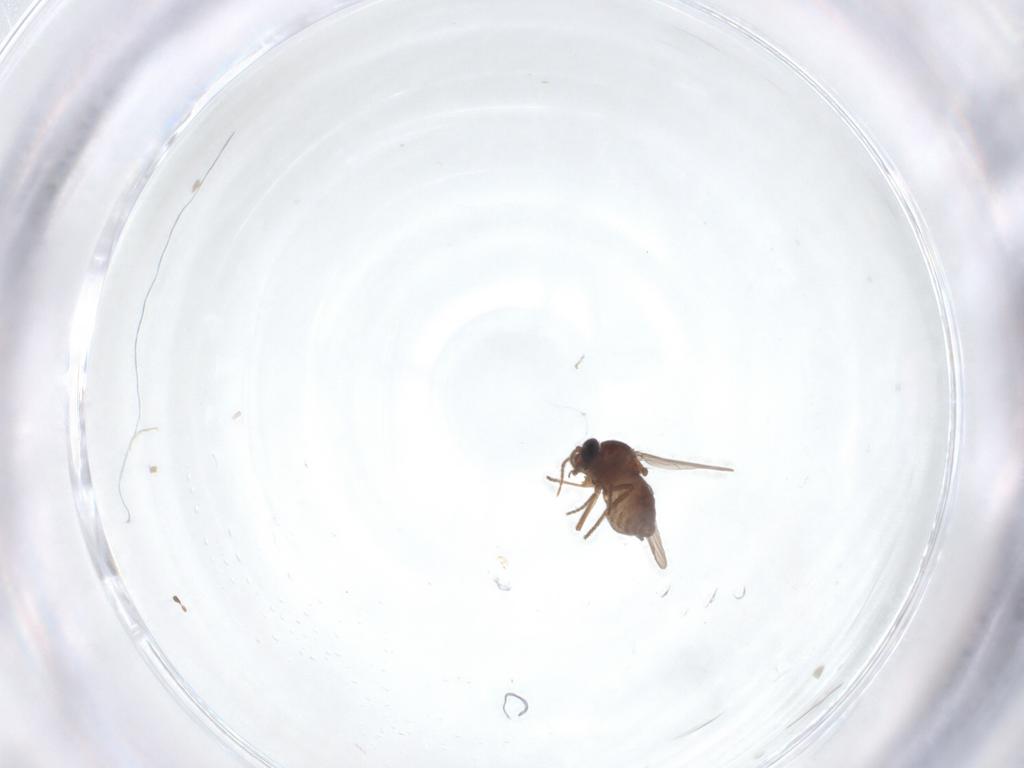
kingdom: Animalia
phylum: Arthropoda
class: Insecta
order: Diptera
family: Ceratopogonidae
